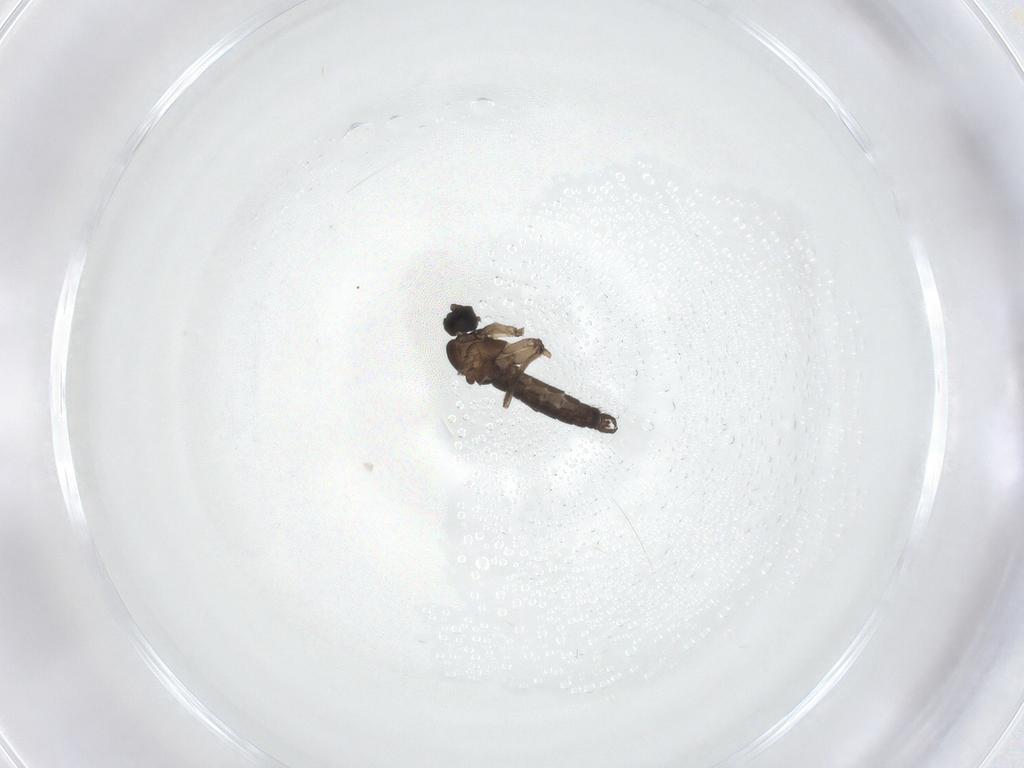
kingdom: Animalia
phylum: Arthropoda
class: Insecta
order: Diptera
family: Sciaridae
